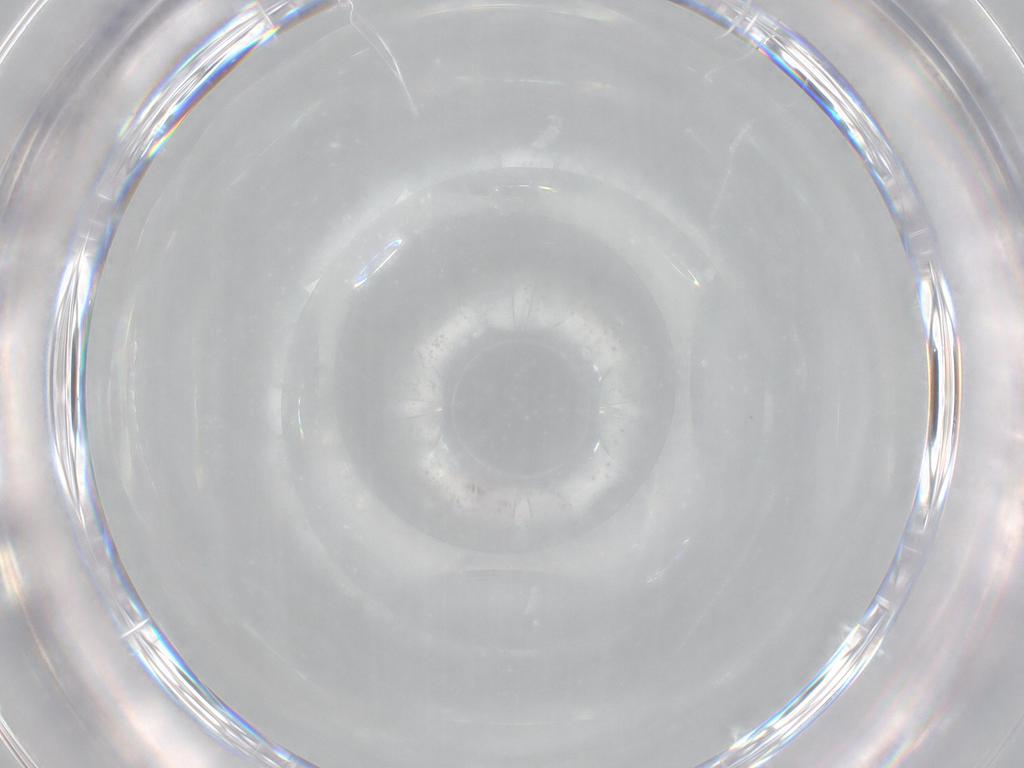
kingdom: Animalia
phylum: Arthropoda
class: Insecta
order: Diptera
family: Cecidomyiidae
